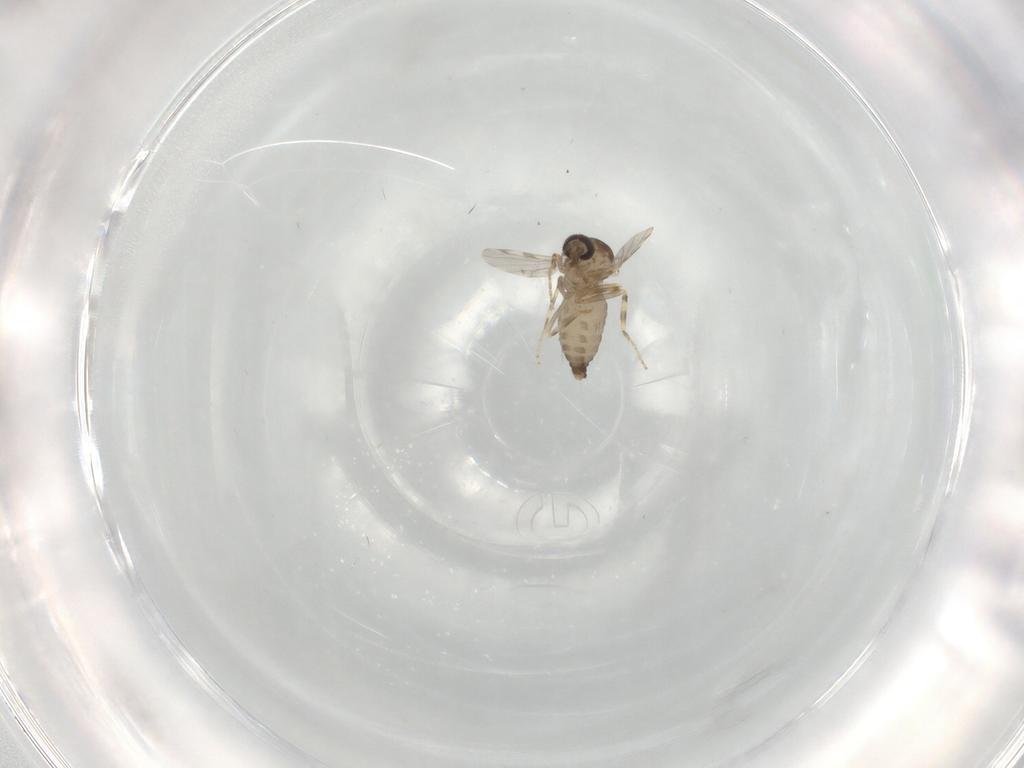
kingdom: Animalia
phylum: Arthropoda
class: Insecta
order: Diptera
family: Ceratopogonidae
